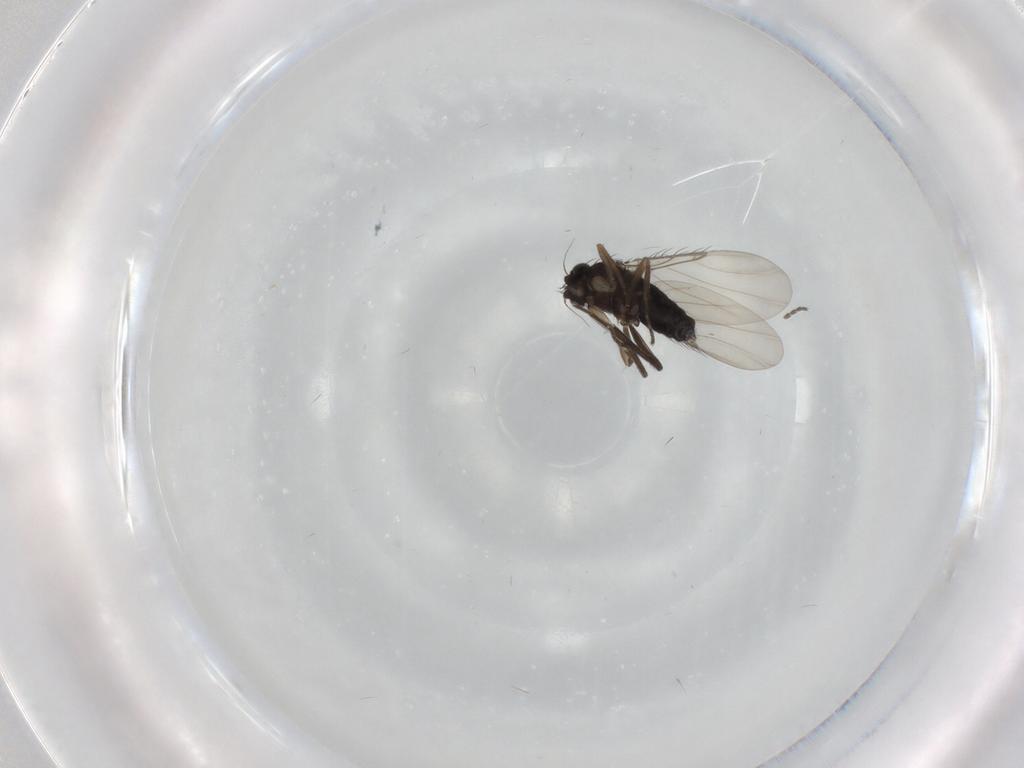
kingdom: Animalia
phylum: Arthropoda
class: Insecta
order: Diptera
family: Phoridae
